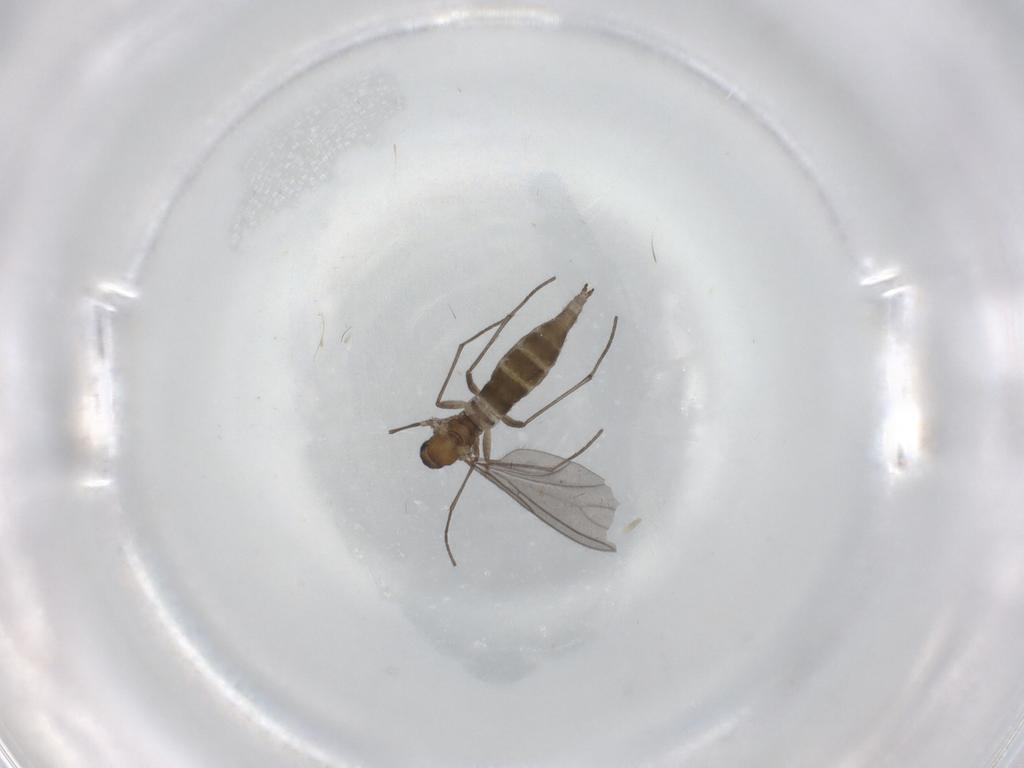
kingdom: Animalia
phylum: Arthropoda
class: Insecta
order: Diptera
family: Sciaridae
